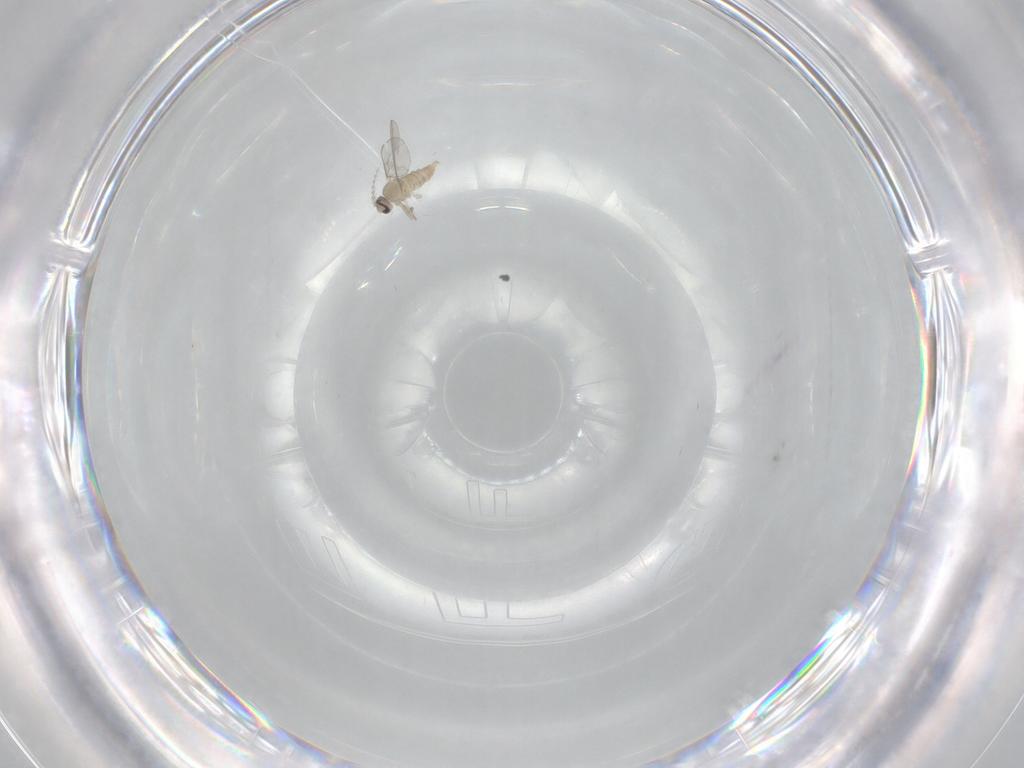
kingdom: Animalia
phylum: Arthropoda
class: Insecta
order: Diptera
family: Cecidomyiidae
